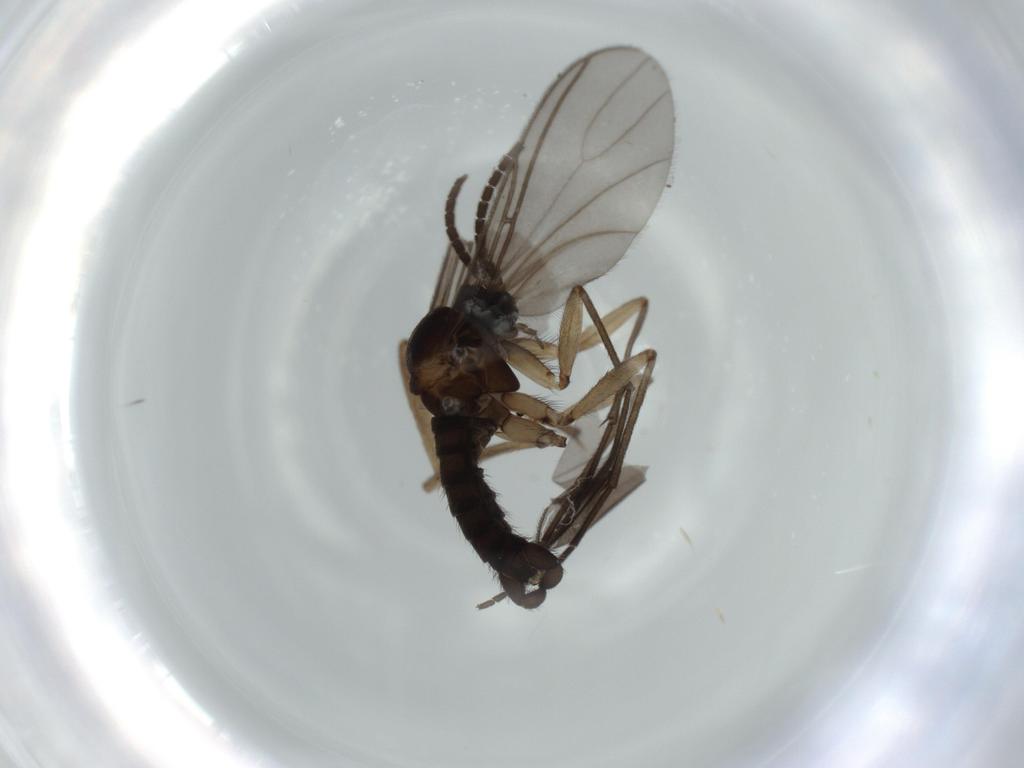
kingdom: Animalia
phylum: Arthropoda
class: Insecta
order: Diptera
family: Sciaridae
